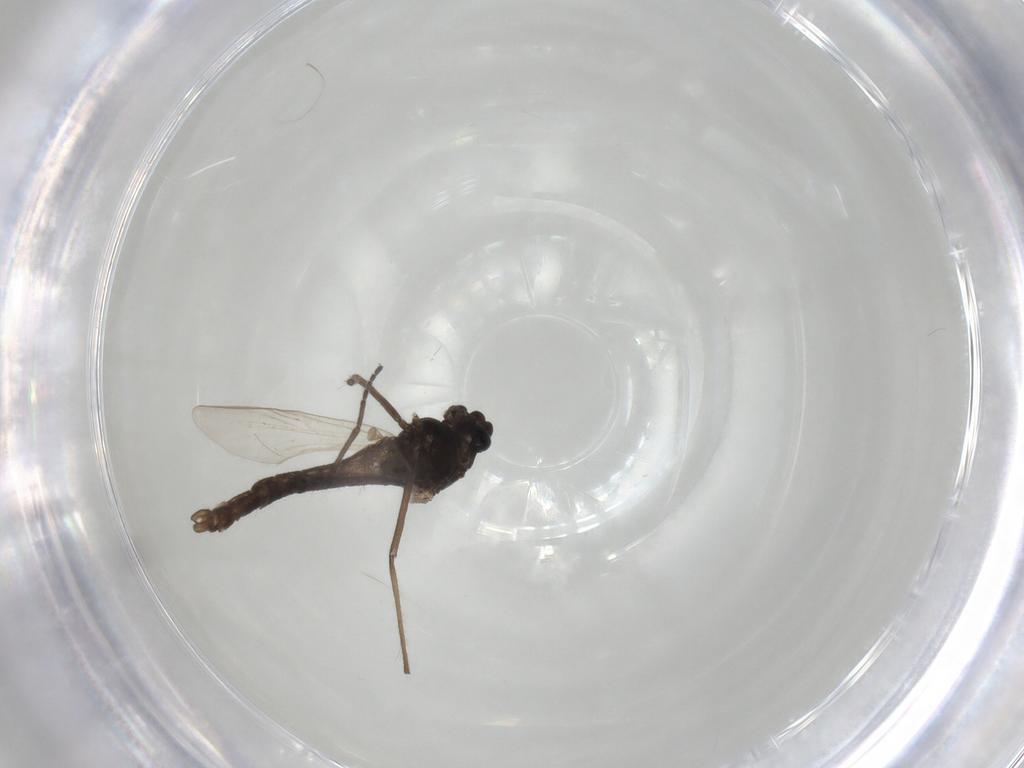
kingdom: Animalia
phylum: Arthropoda
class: Insecta
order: Diptera
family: Chironomidae
